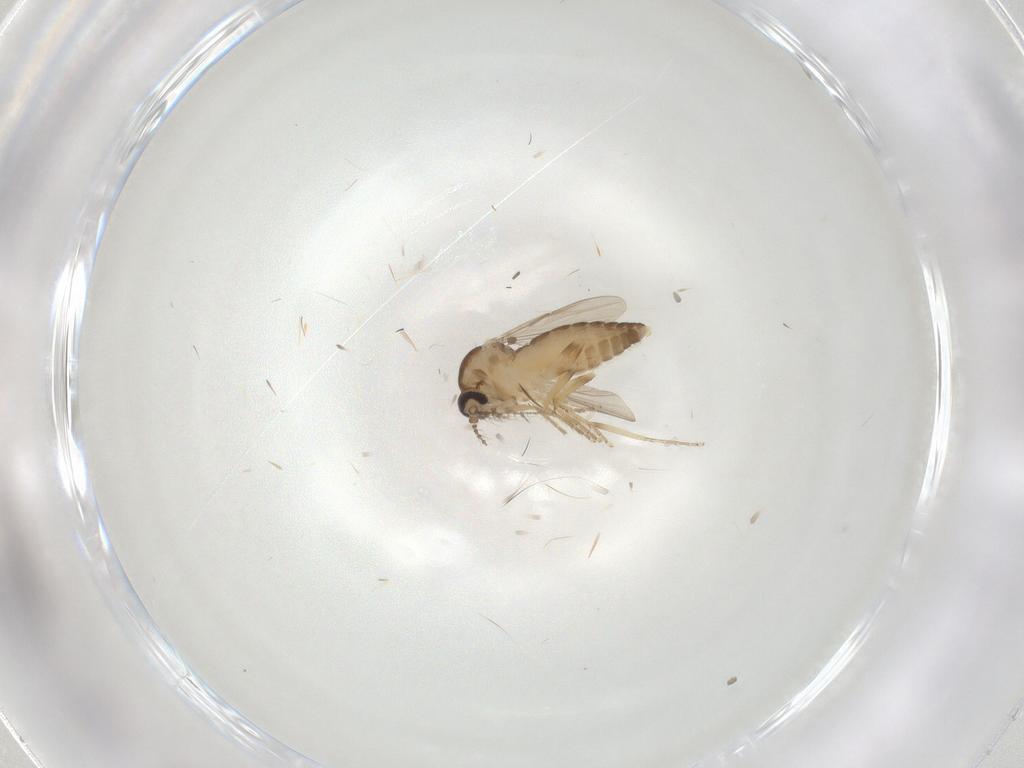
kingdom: Animalia
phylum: Arthropoda
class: Insecta
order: Diptera
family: Ceratopogonidae
